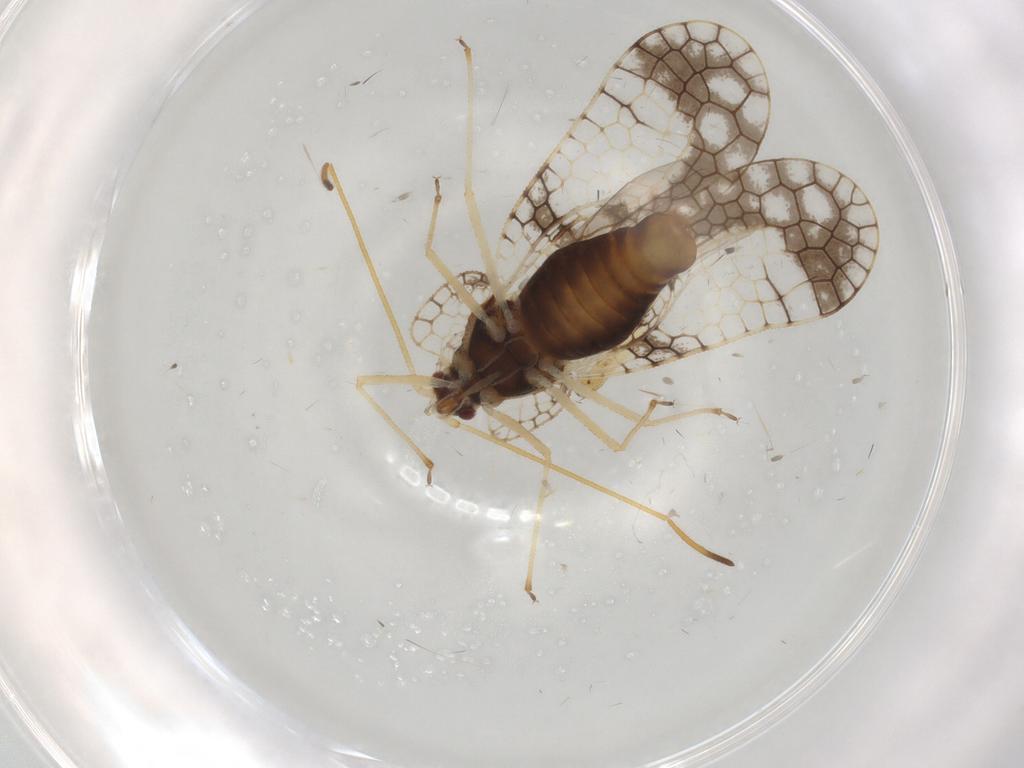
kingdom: Animalia
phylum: Arthropoda
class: Insecta
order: Hemiptera
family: Tingidae
